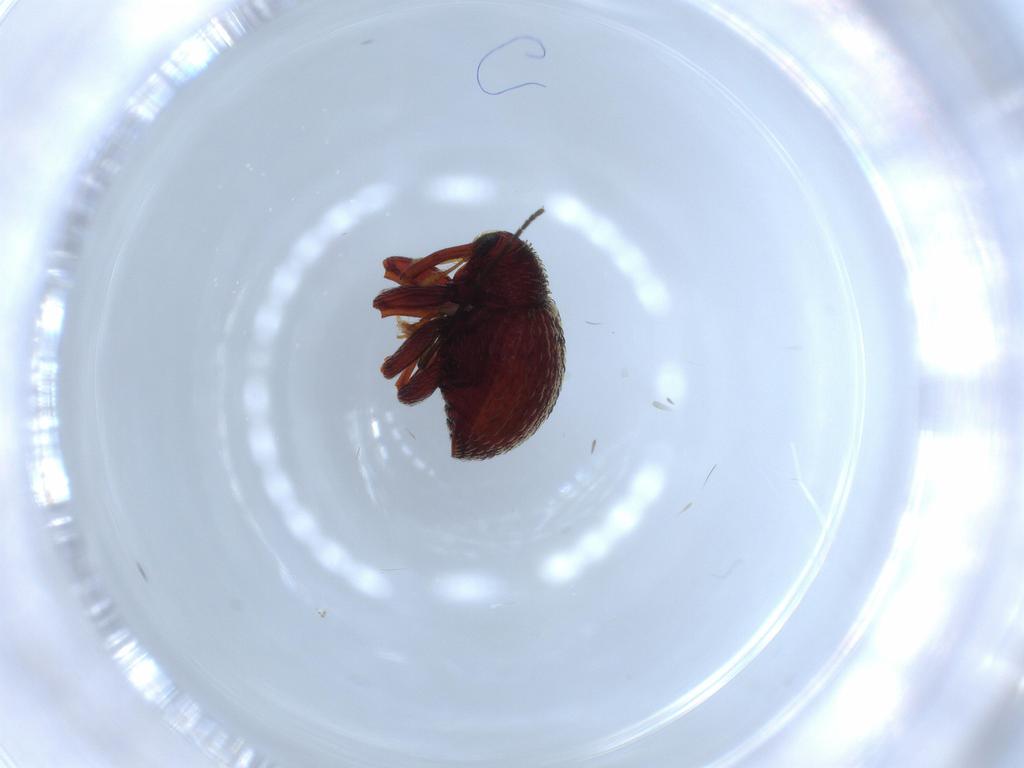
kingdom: Animalia
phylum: Arthropoda
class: Insecta
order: Coleoptera
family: Curculionidae
